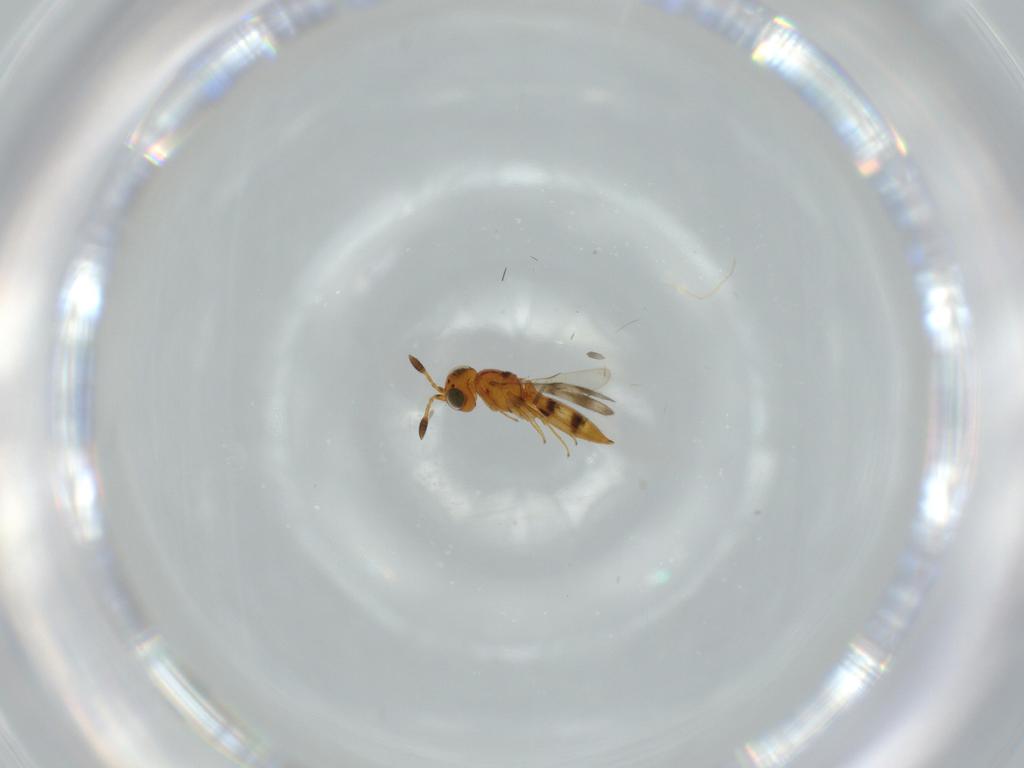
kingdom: Animalia
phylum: Arthropoda
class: Insecta
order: Hymenoptera
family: Scelionidae
